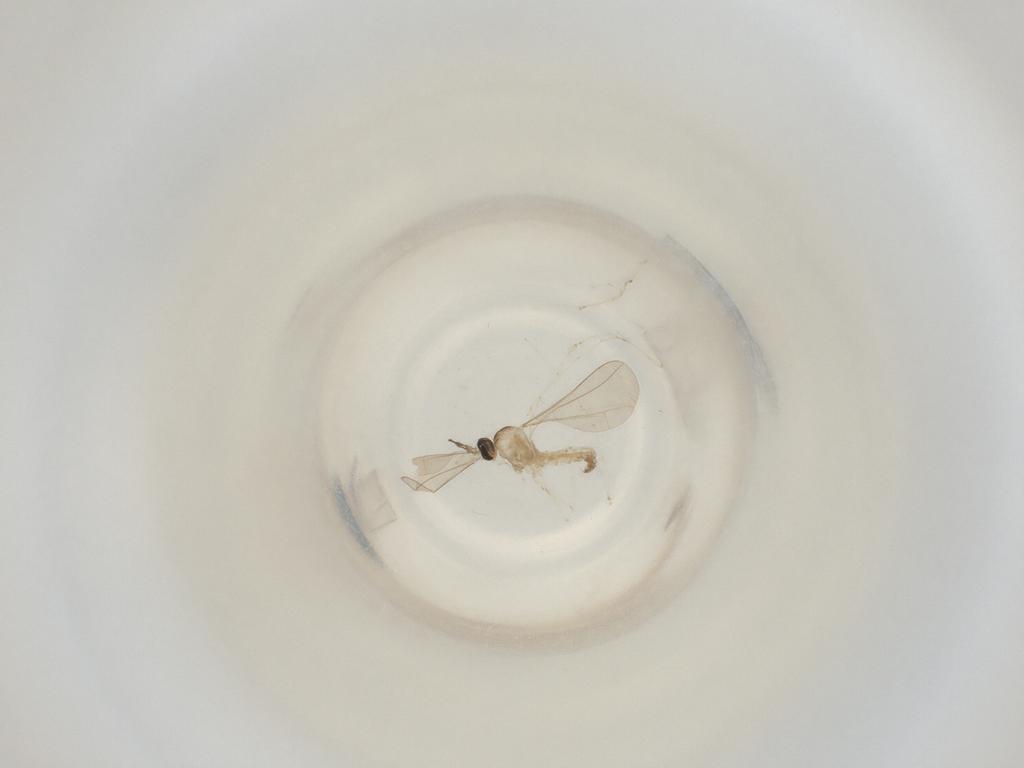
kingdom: Animalia
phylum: Arthropoda
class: Insecta
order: Diptera
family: Cecidomyiidae
